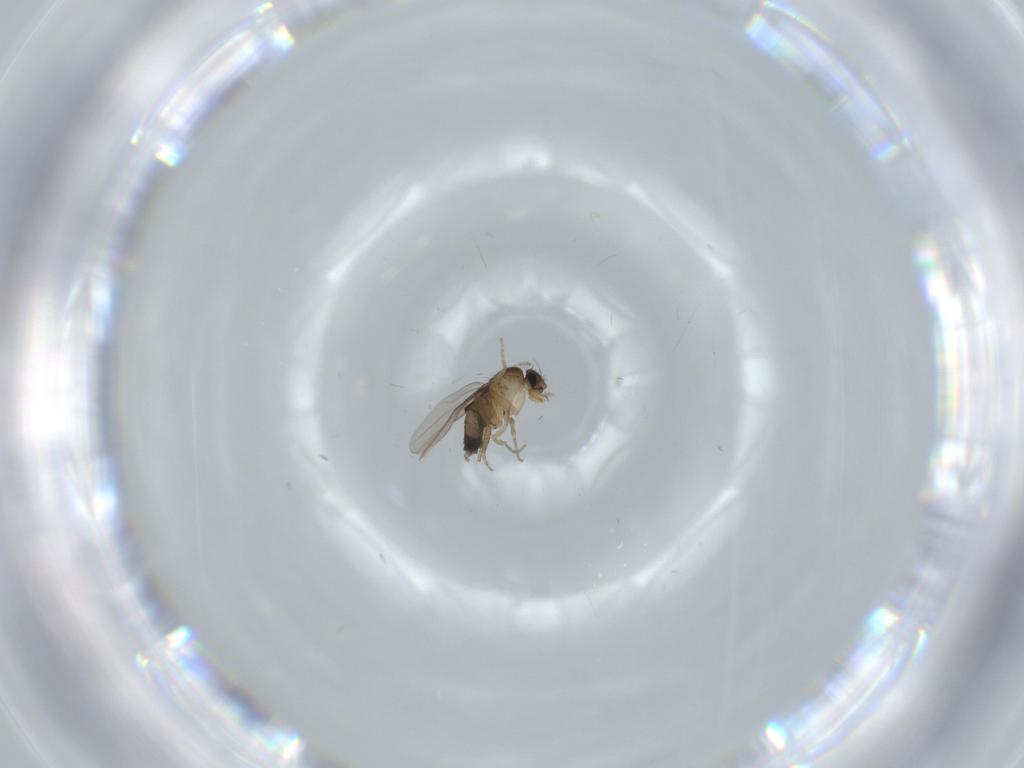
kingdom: Animalia
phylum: Arthropoda
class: Insecta
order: Diptera
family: Phoridae
